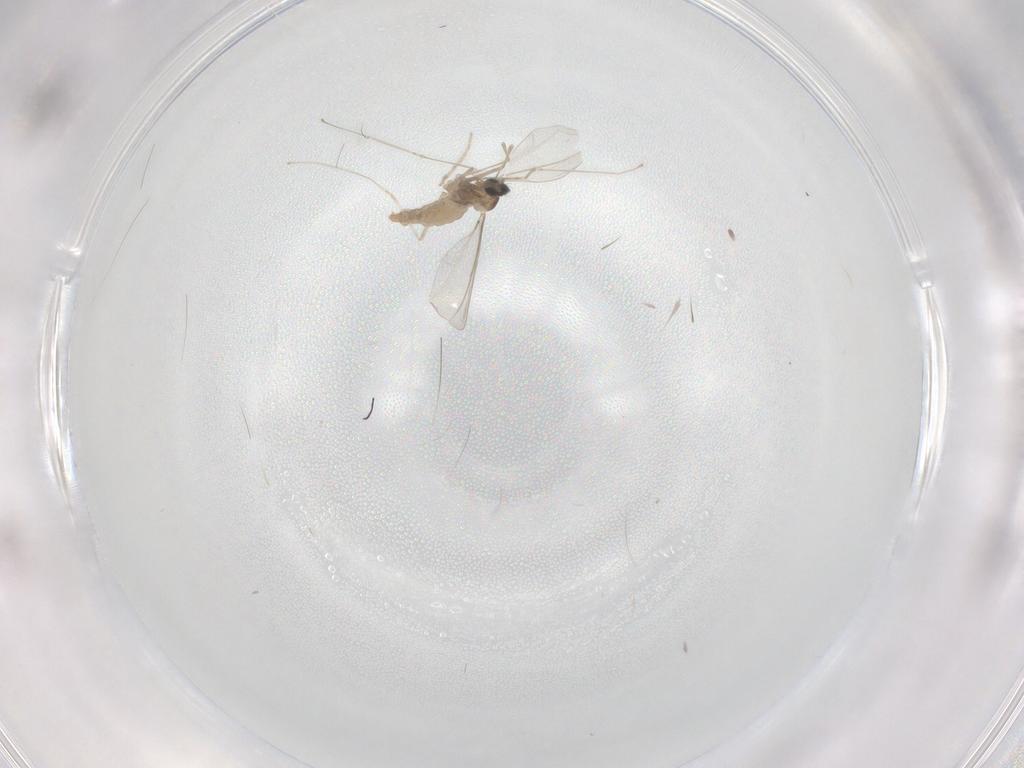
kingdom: Animalia
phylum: Arthropoda
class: Insecta
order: Diptera
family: Chironomidae
